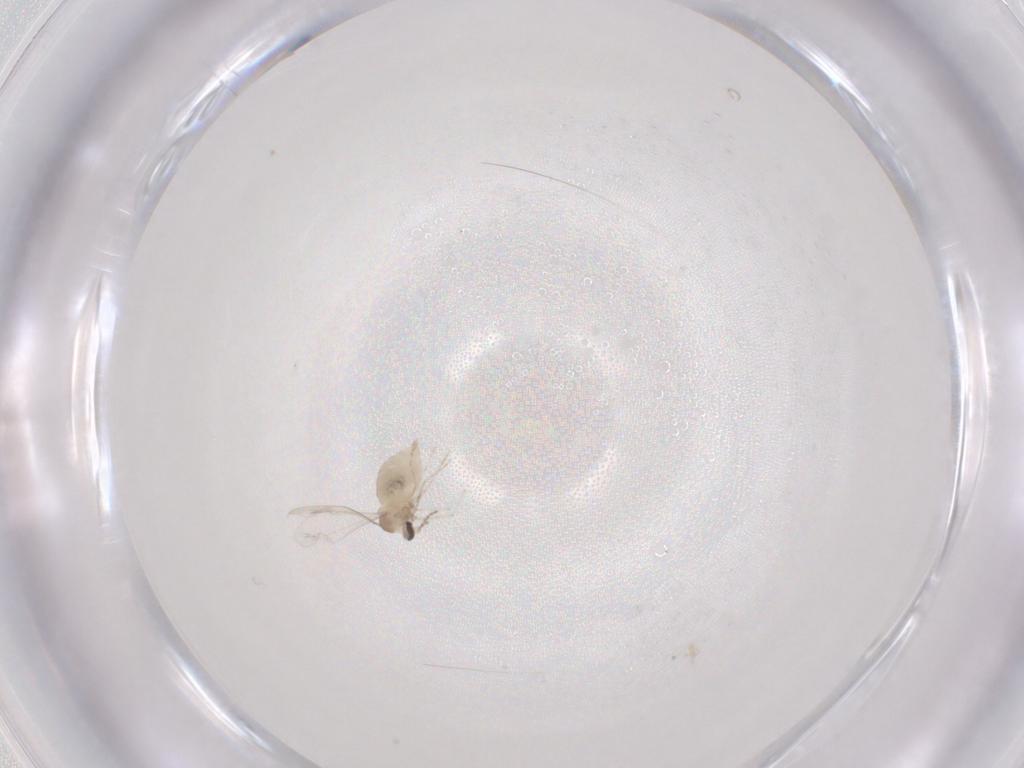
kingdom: Animalia
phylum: Arthropoda
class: Insecta
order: Diptera
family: Cecidomyiidae
